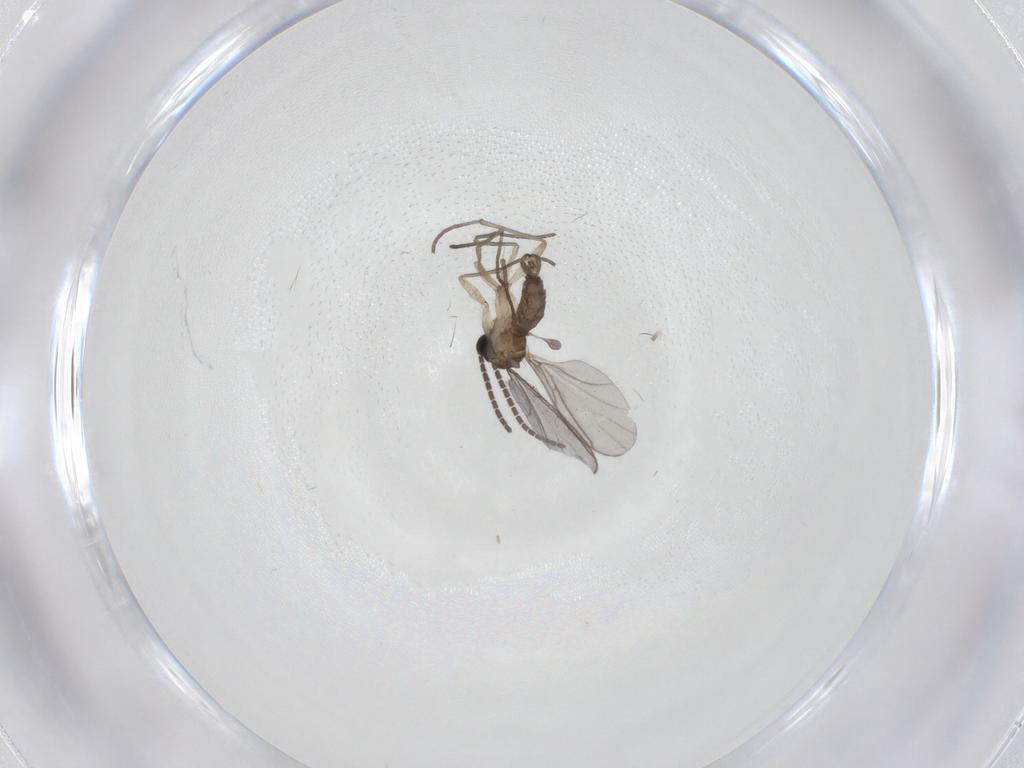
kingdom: Animalia
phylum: Arthropoda
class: Insecta
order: Diptera
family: Sciaridae
